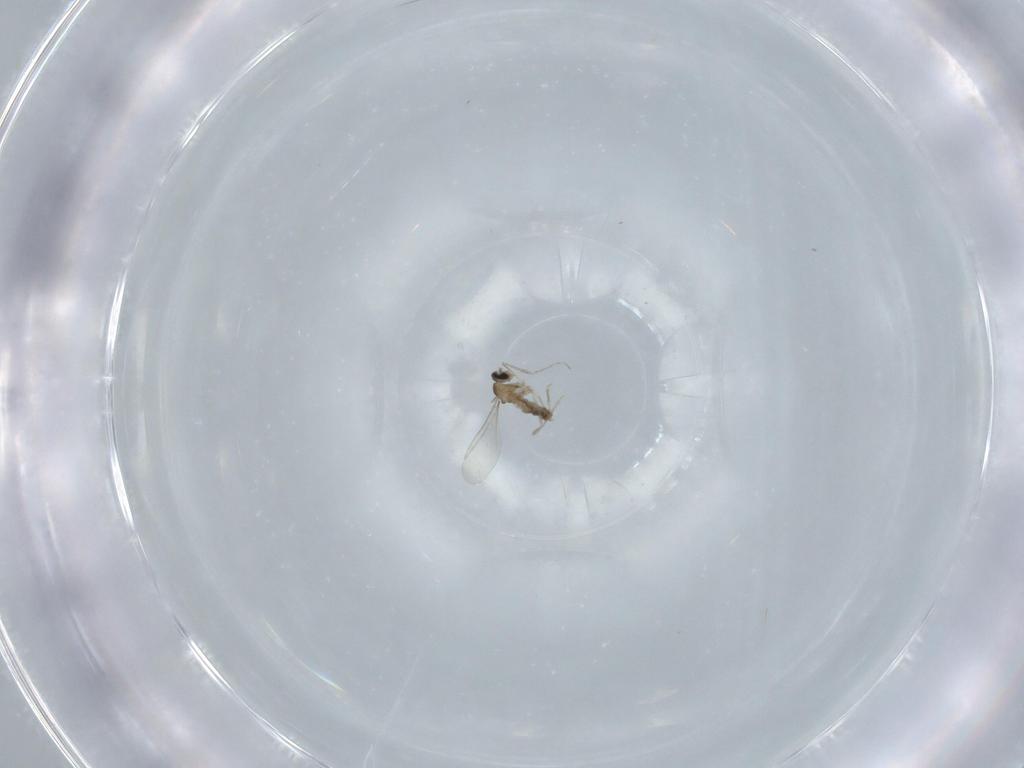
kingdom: Animalia
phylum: Arthropoda
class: Insecta
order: Diptera
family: Cecidomyiidae
